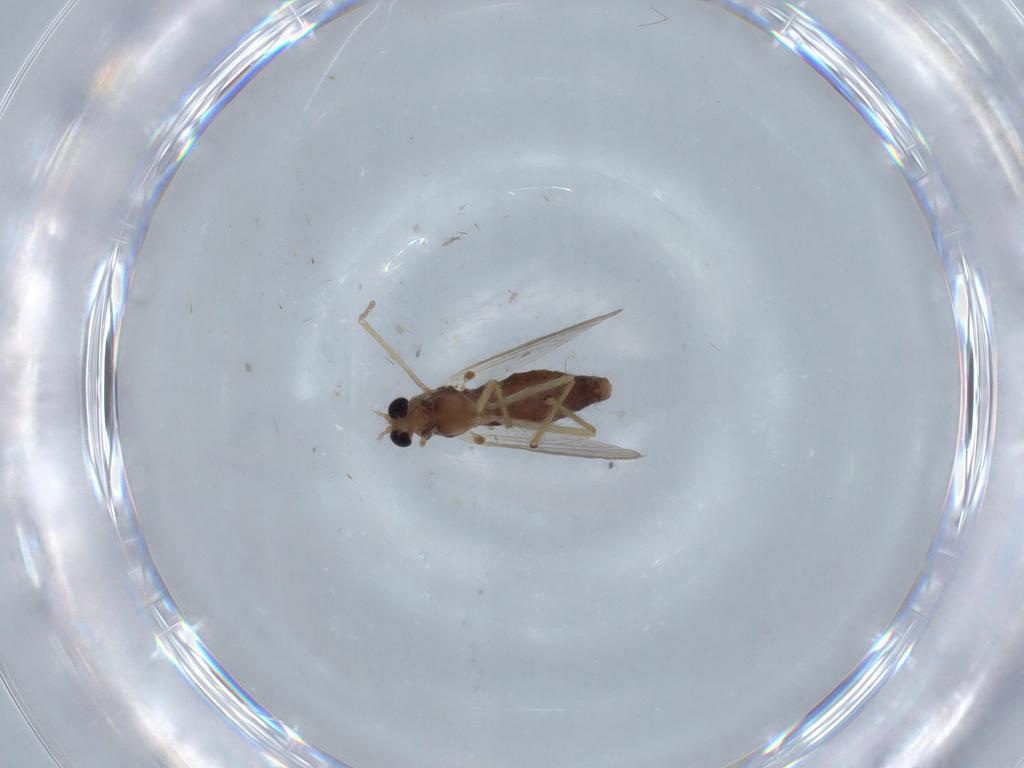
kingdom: Animalia
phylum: Arthropoda
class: Insecta
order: Diptera
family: Chironomidae
